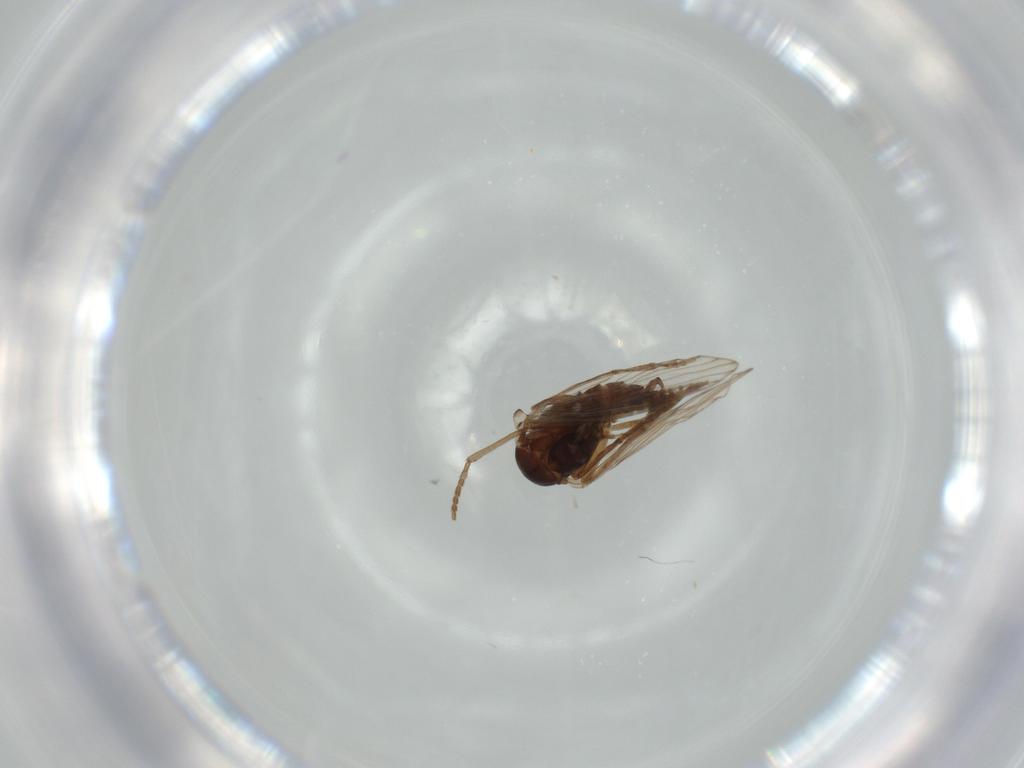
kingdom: Animalia
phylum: Arthropoda
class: Insecta
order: Diptera
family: Ceratopogonidae
